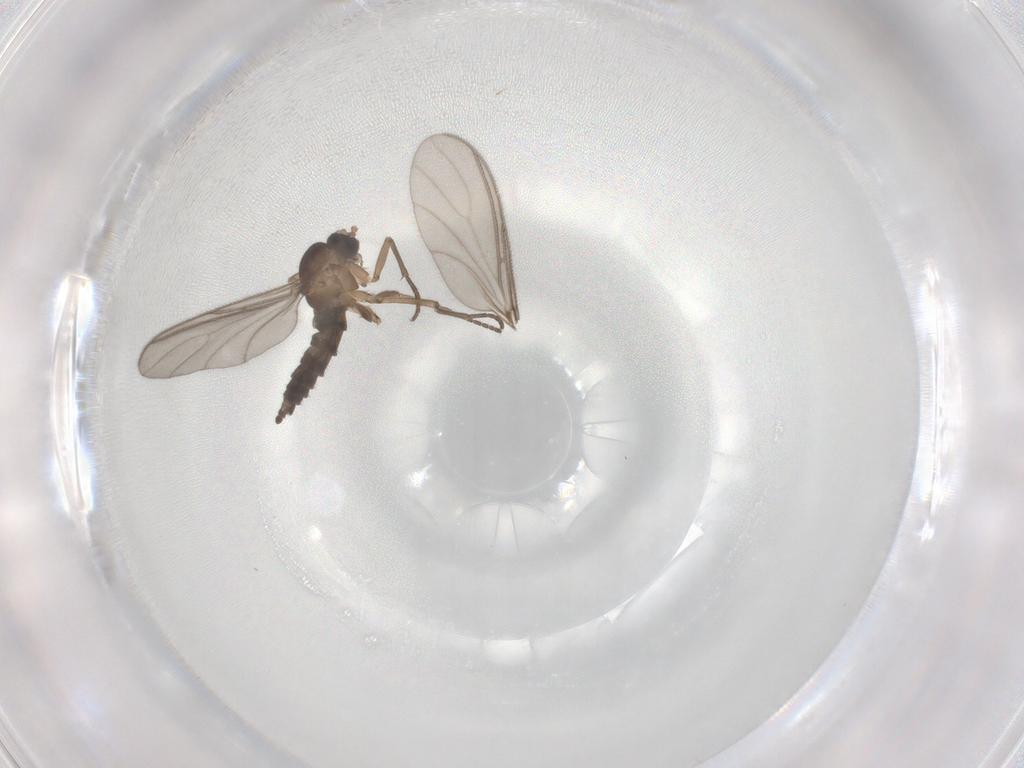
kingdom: Animalia
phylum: Arthropoda
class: Insecta
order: Diptera
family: Sciaridae
